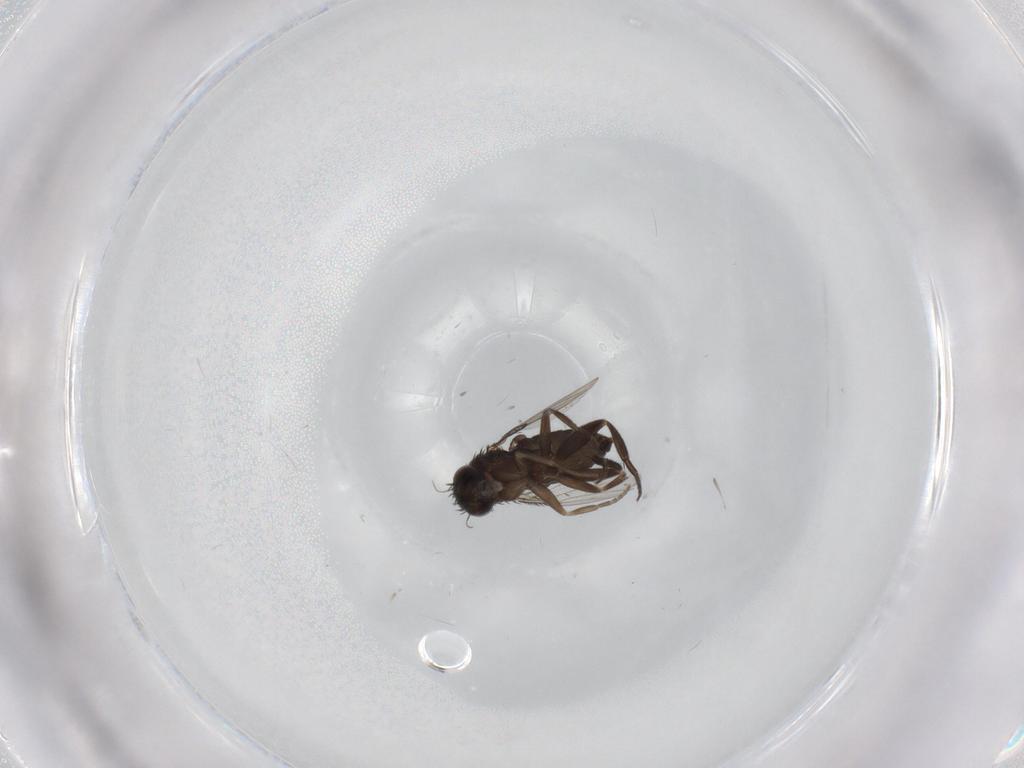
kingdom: Animalia
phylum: Arthropoda
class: Insecta
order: Diptera
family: Phoridae
